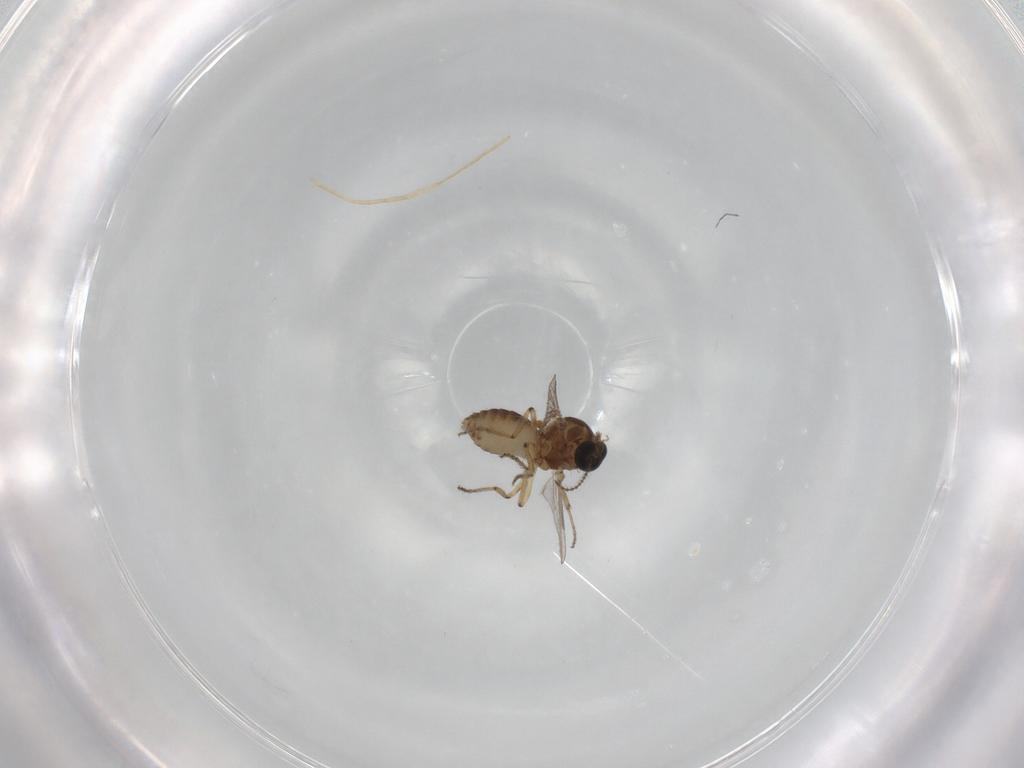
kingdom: Animalia
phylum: Arthropoda
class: Insecta
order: Diptera
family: Ceratopogonidae
